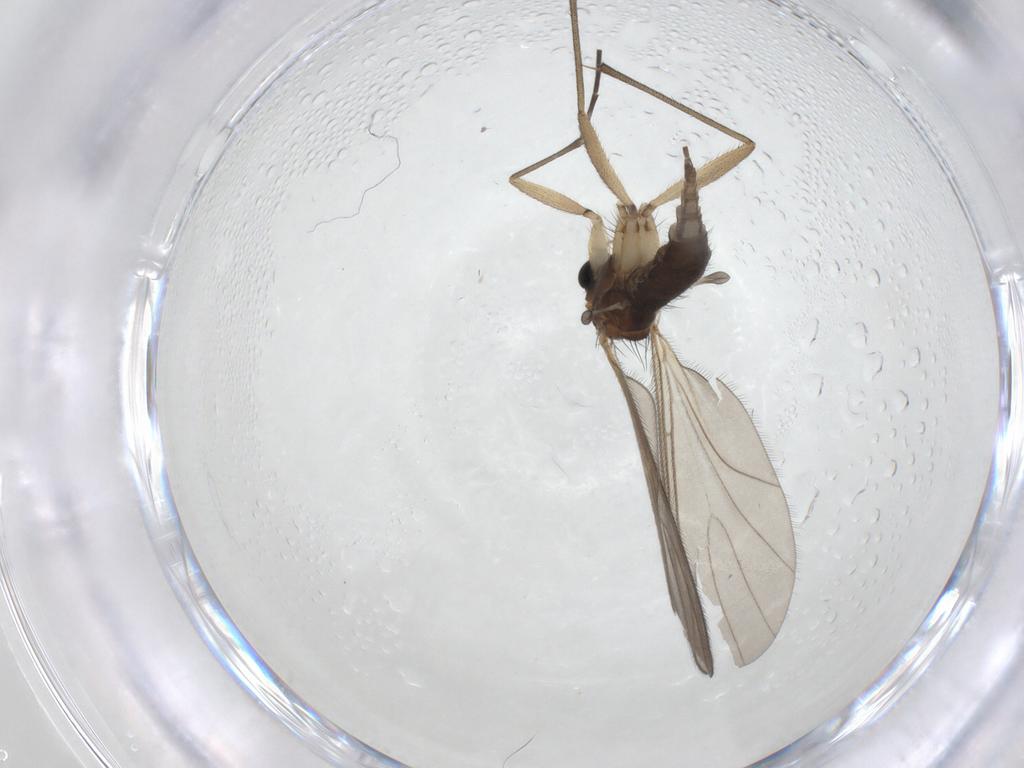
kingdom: Animalia
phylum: Arthropoda
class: Insecta
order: Diptera
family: Sciaridae
